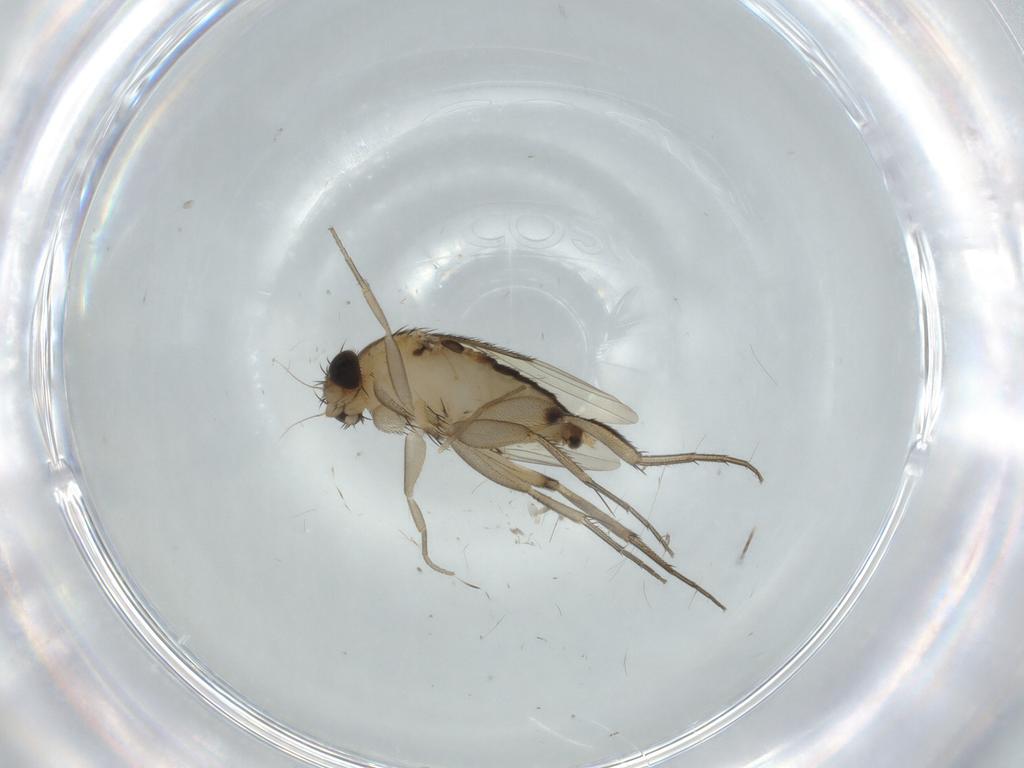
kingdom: Animalia
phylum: Arthropoda
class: Insecta
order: Diptera
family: Phoridae
